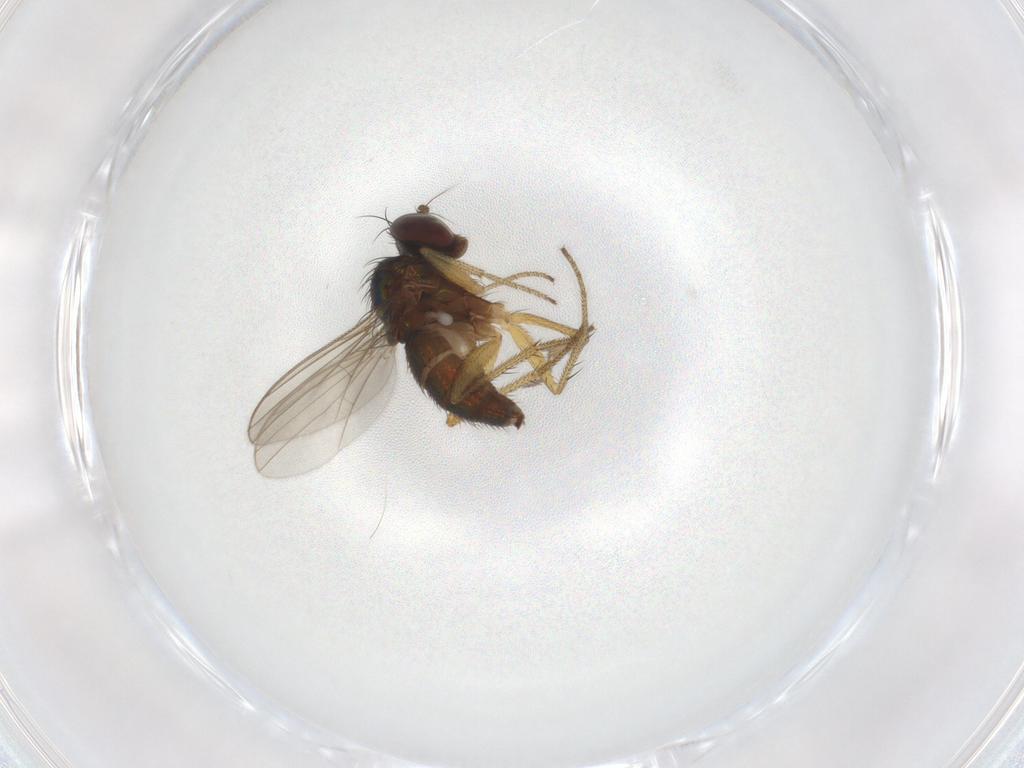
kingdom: Animalia
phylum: Arthropoda
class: Insecta
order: Diptera
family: Dolichopodidae
